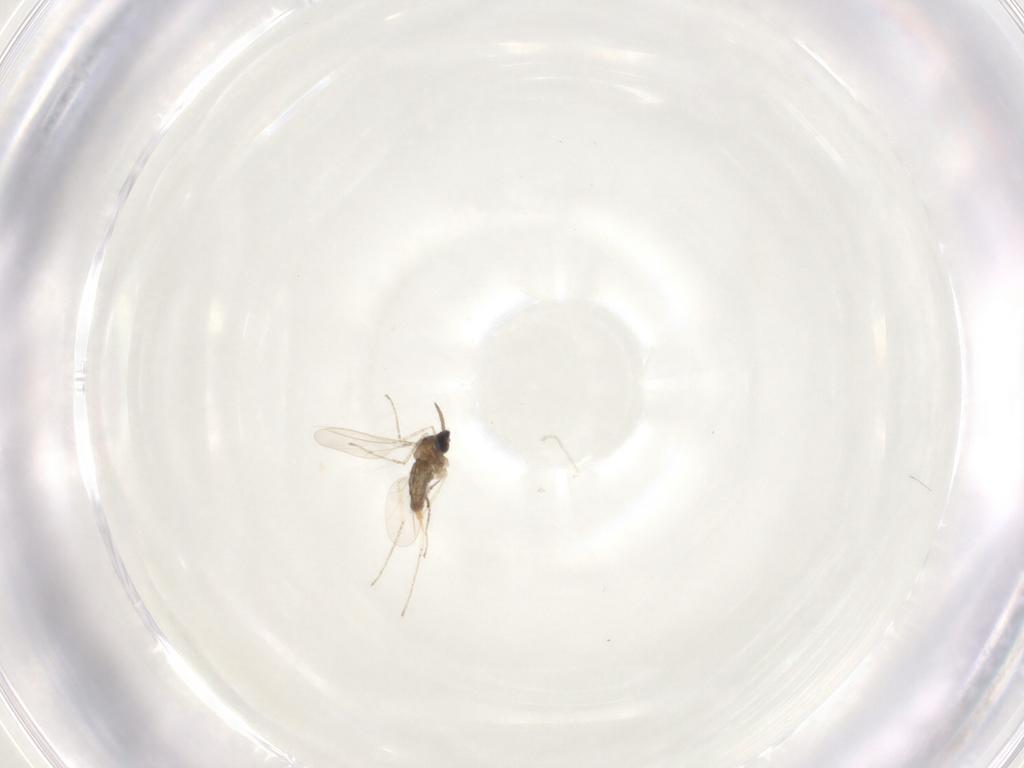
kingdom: Animalia
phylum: Arthropoda
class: Insecta
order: Diptera
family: Cecidomyiidae
